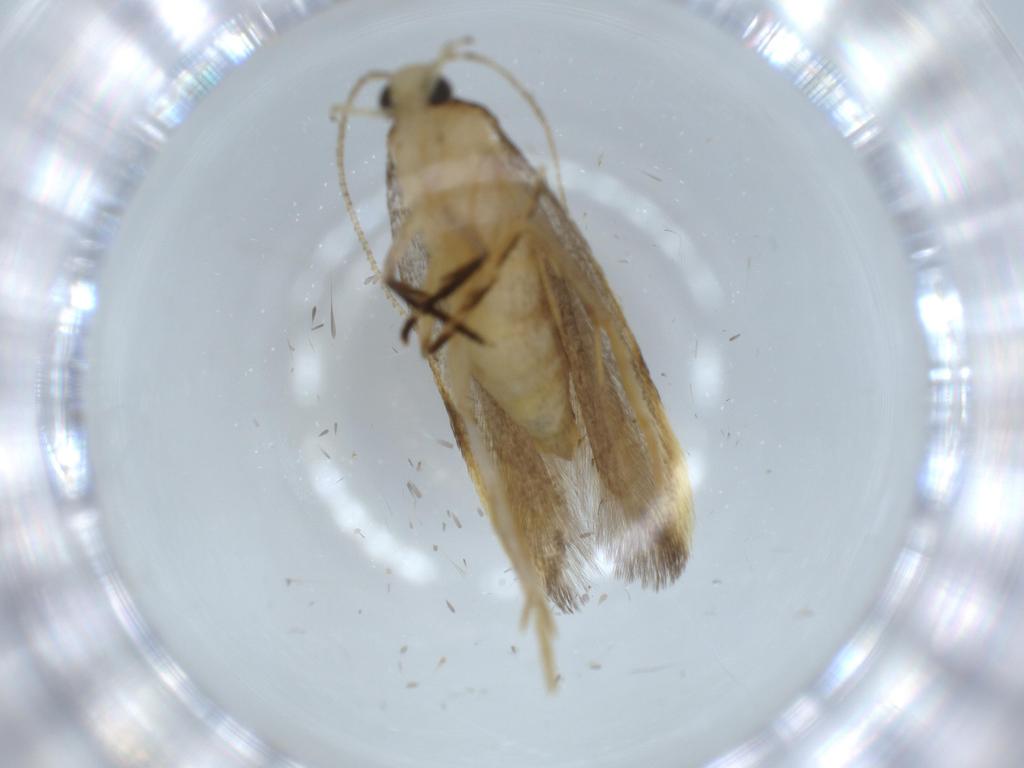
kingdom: Animalia
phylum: Arthropoda
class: Insecta
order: Lepidoptera
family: Autostichidae
